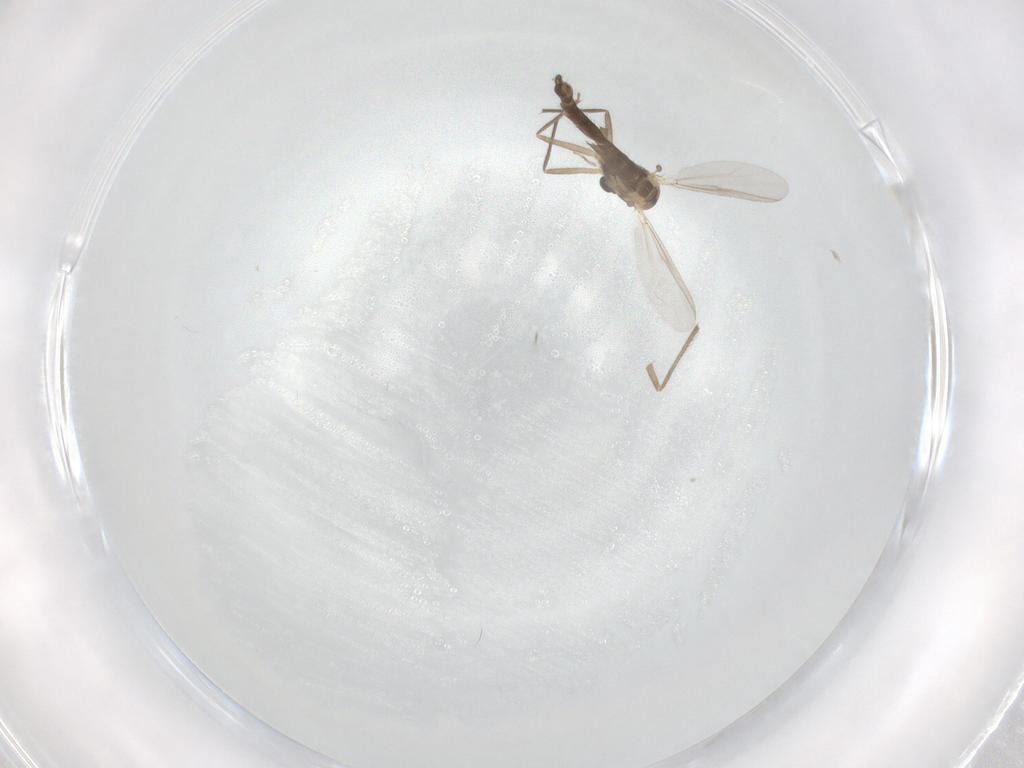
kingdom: Animalia
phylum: Arthropoda
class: Insecta
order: Diptera
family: Chironomidae
